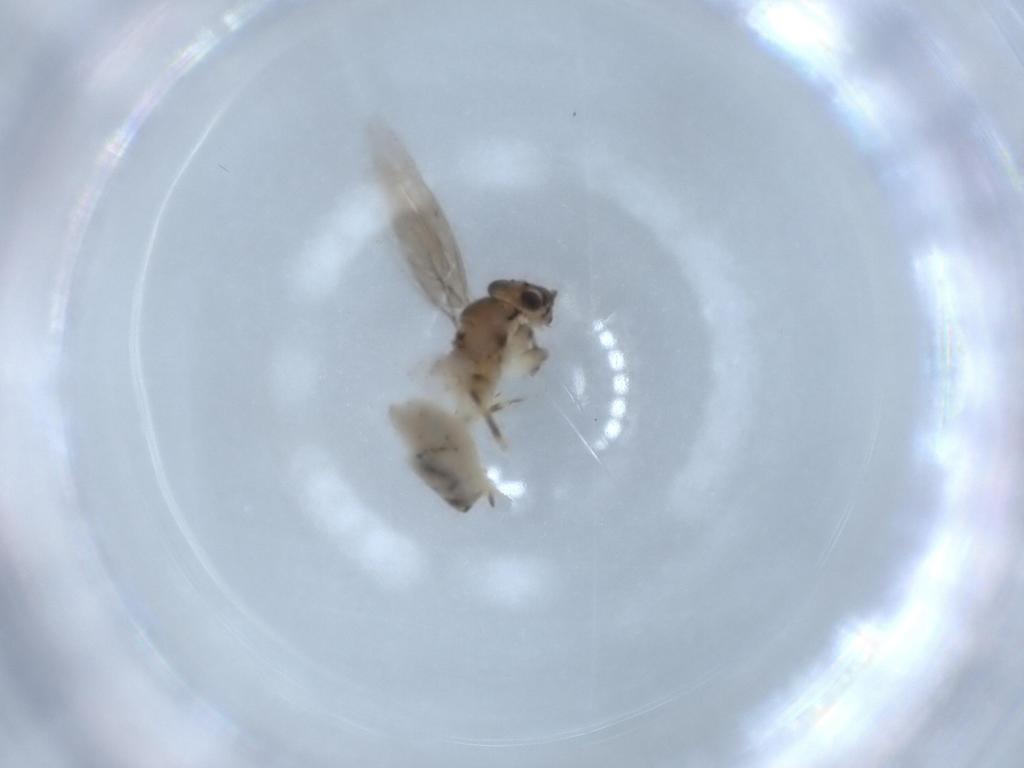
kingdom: Animalia
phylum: Arthropoda
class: Insecta
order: Psocodea
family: Lepidopsocidae
